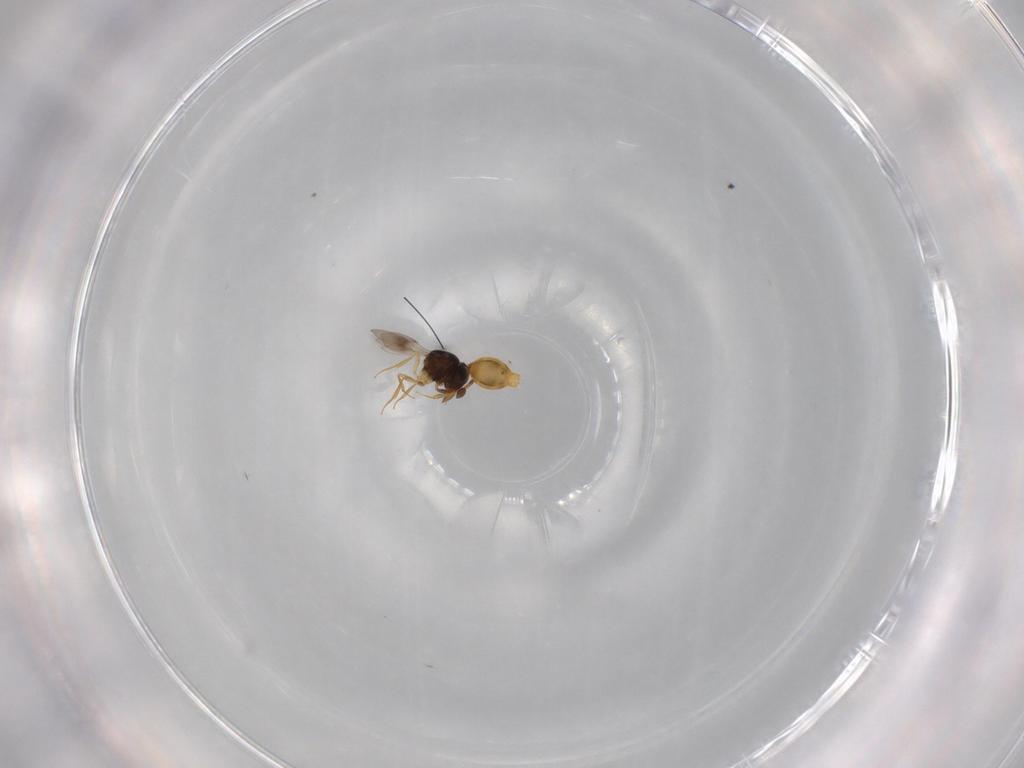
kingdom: Animalia
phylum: Arthropoda
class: Insecta
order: Hymenoptera
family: Scelionidae
